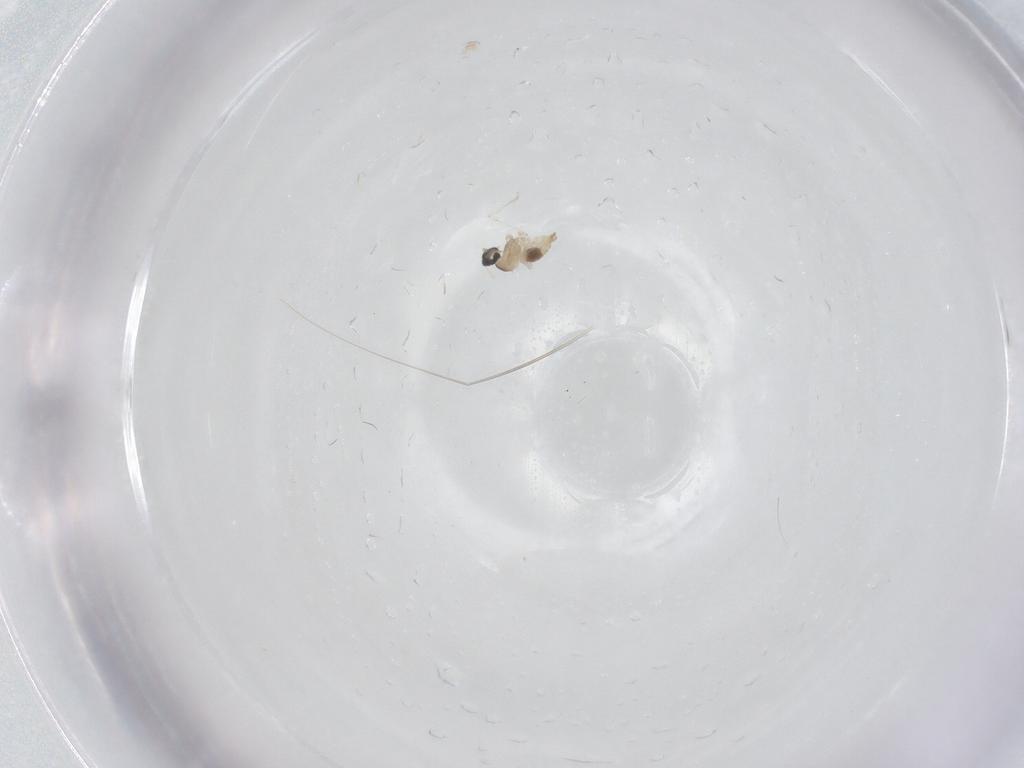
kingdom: Animalia
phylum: Arthropoda
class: Insecta
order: Diptera
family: Cecidomyiidae
